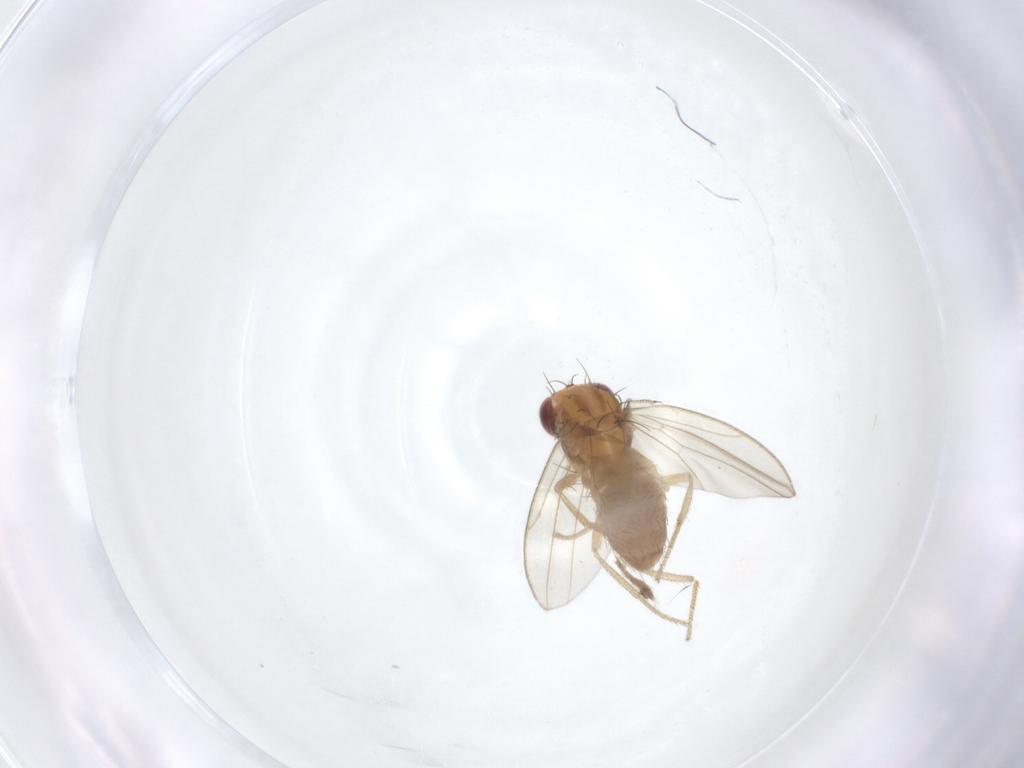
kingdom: Animalia
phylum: Arthropoda
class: Insecta
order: Diptera
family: Drosophilidae
